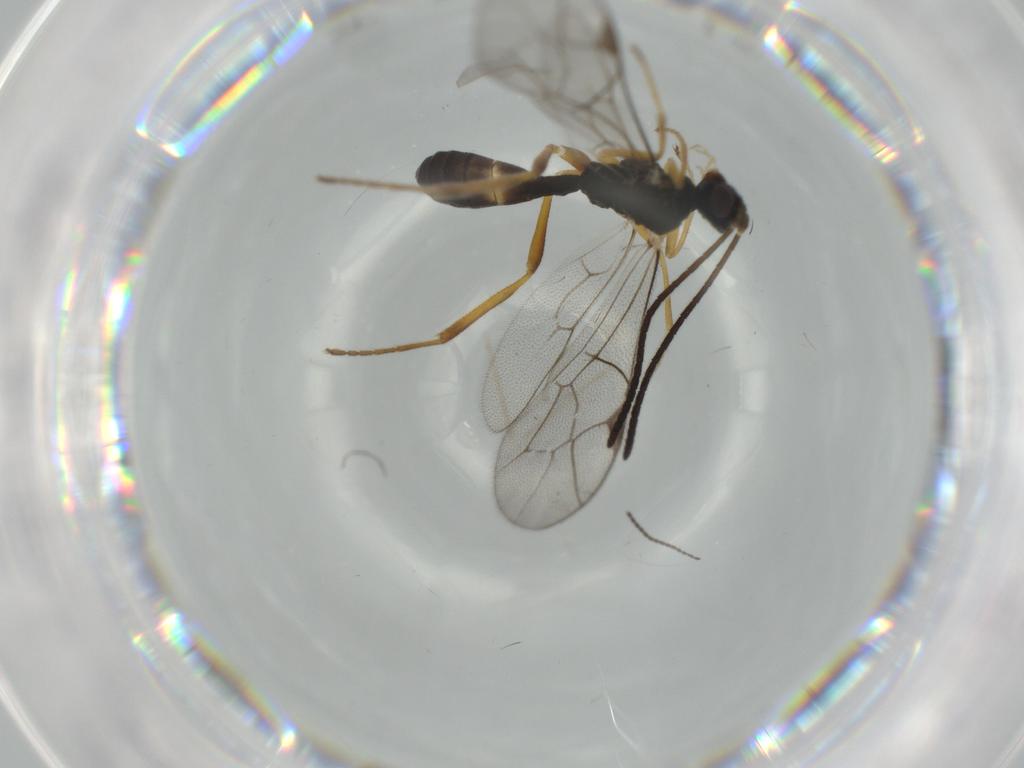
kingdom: Animalia
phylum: Arthropoda
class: Insecta
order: Hymenoptera
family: Ichneumonidae
